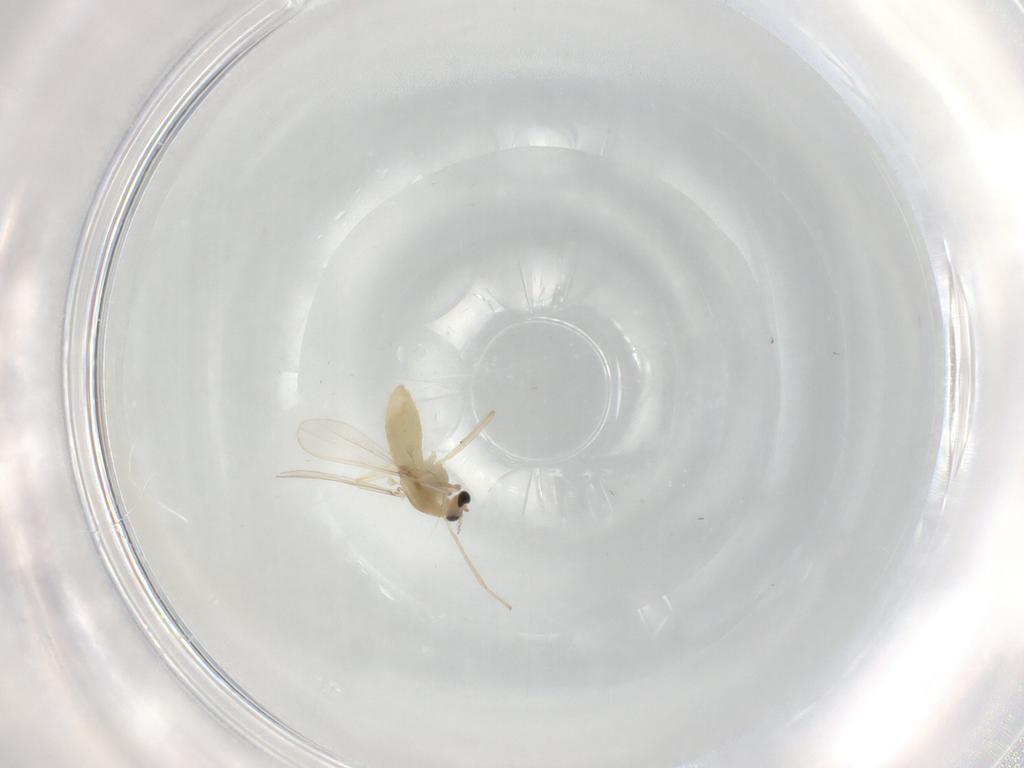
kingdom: Animalia
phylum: Arthropoda
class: Insecta
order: Diptera
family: Chironomidae
